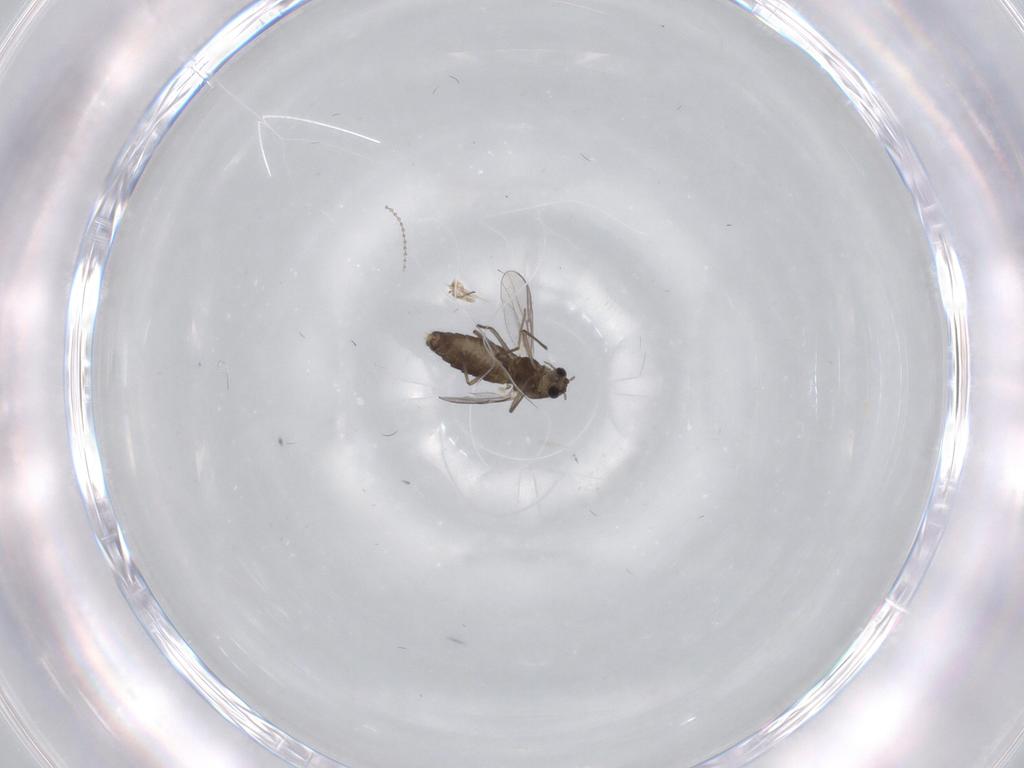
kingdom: Animalia
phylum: Arthropoda
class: Insecta
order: Diptera
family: Chironomidae
